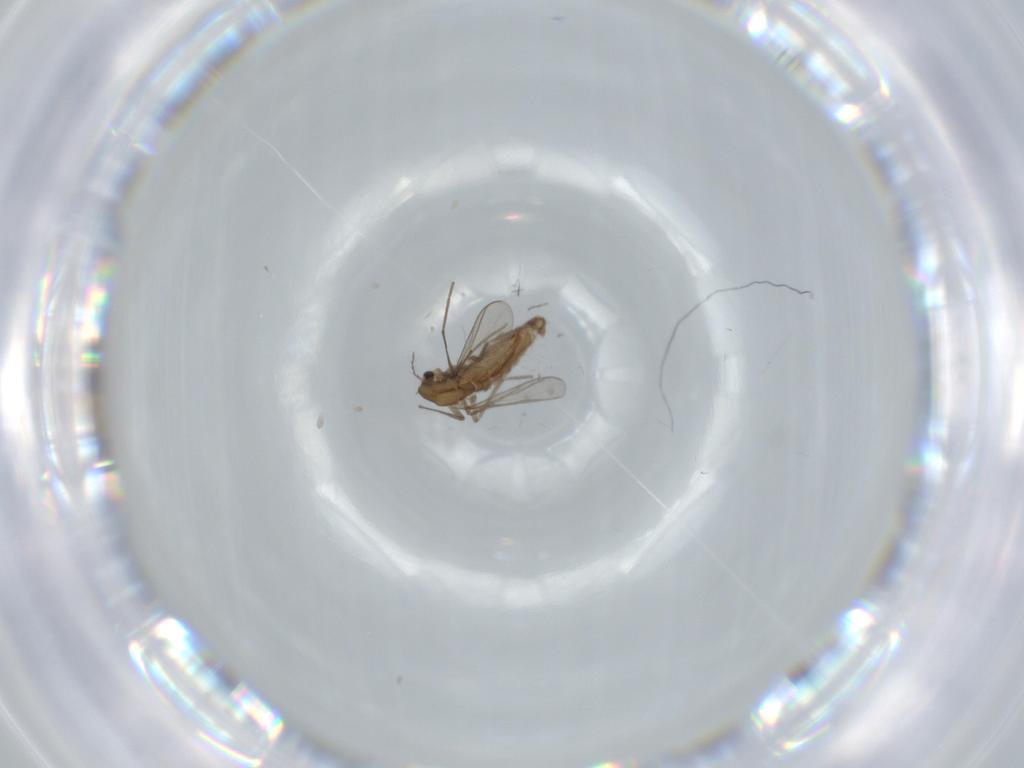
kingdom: Animalia
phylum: Arthropoda
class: Insecta
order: Diptera
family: Chironomidae
